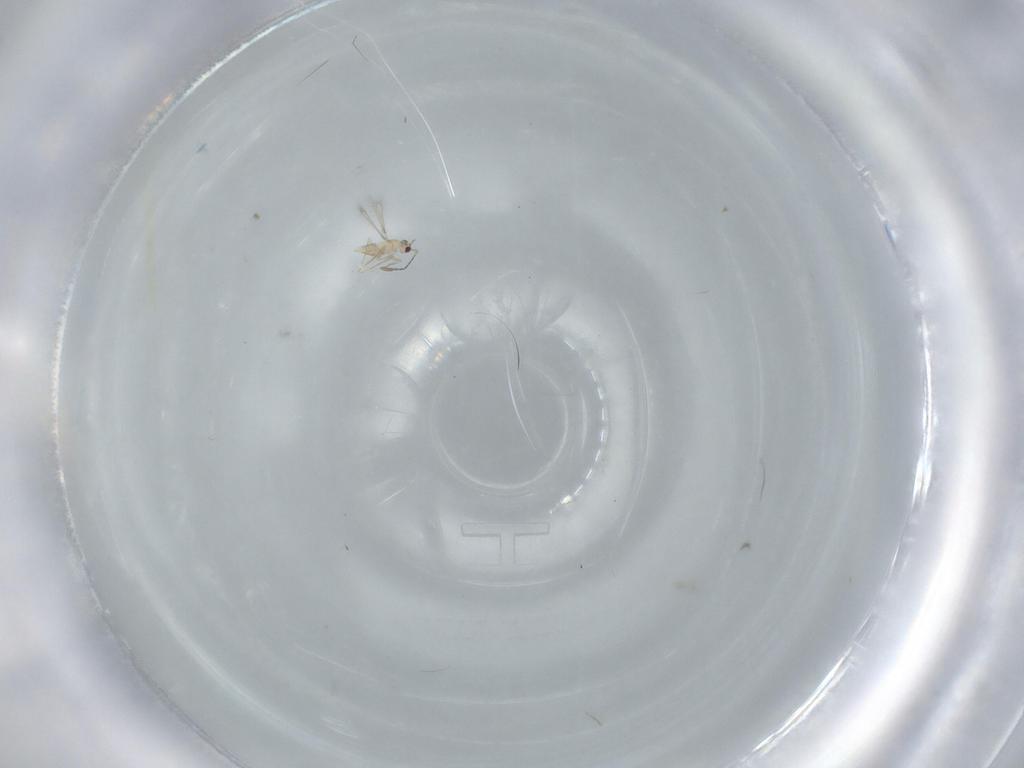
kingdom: Animalia
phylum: Arthropoda
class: Insecta
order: Hymenoptera
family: Mymaridae
